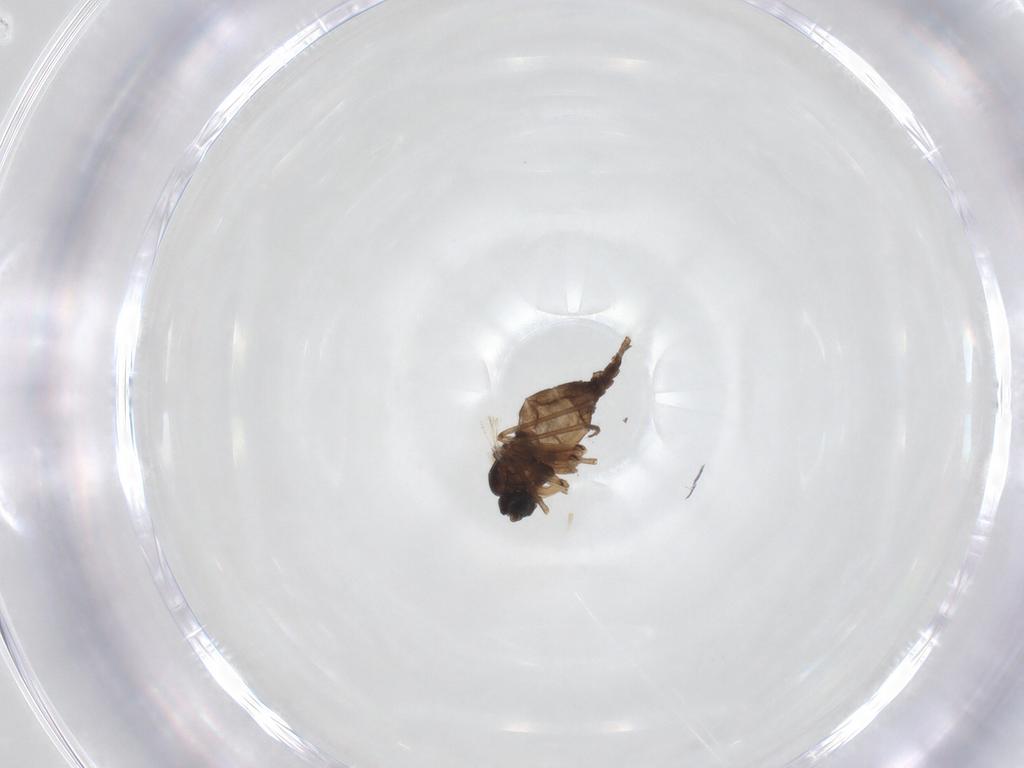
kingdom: Animalia
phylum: Arthropoda
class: Insecta
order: Diptera
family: Sciaridae
